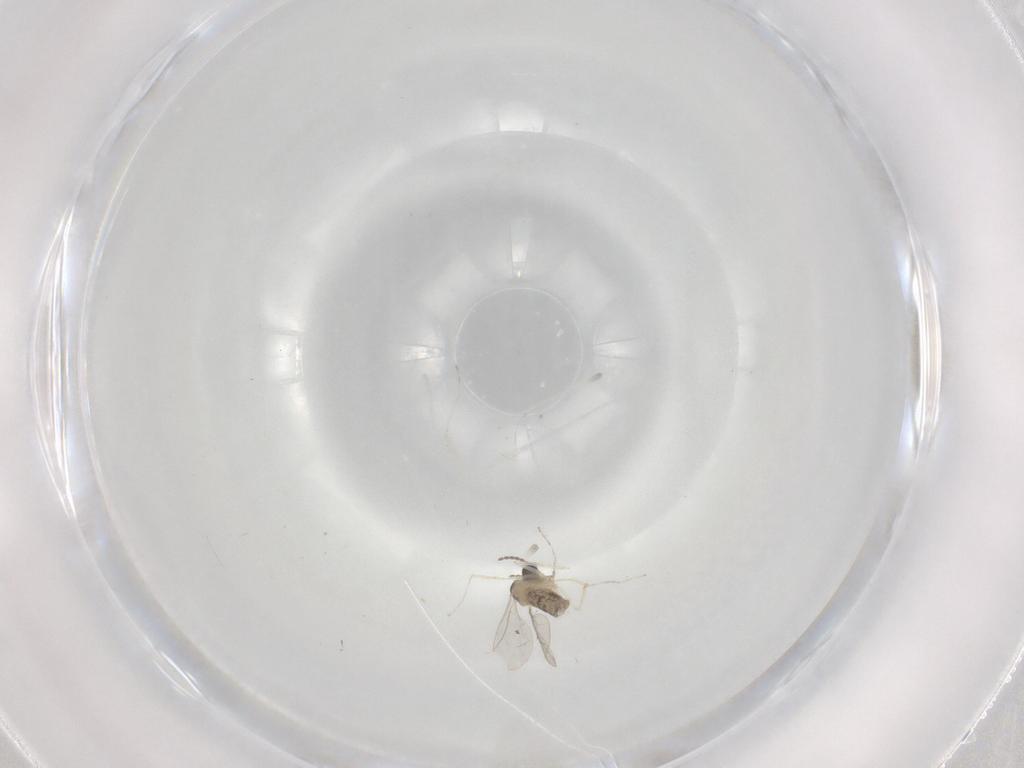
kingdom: Animalia
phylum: Arthropoda
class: Insecta
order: Diptera
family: Cecidomyiidae
